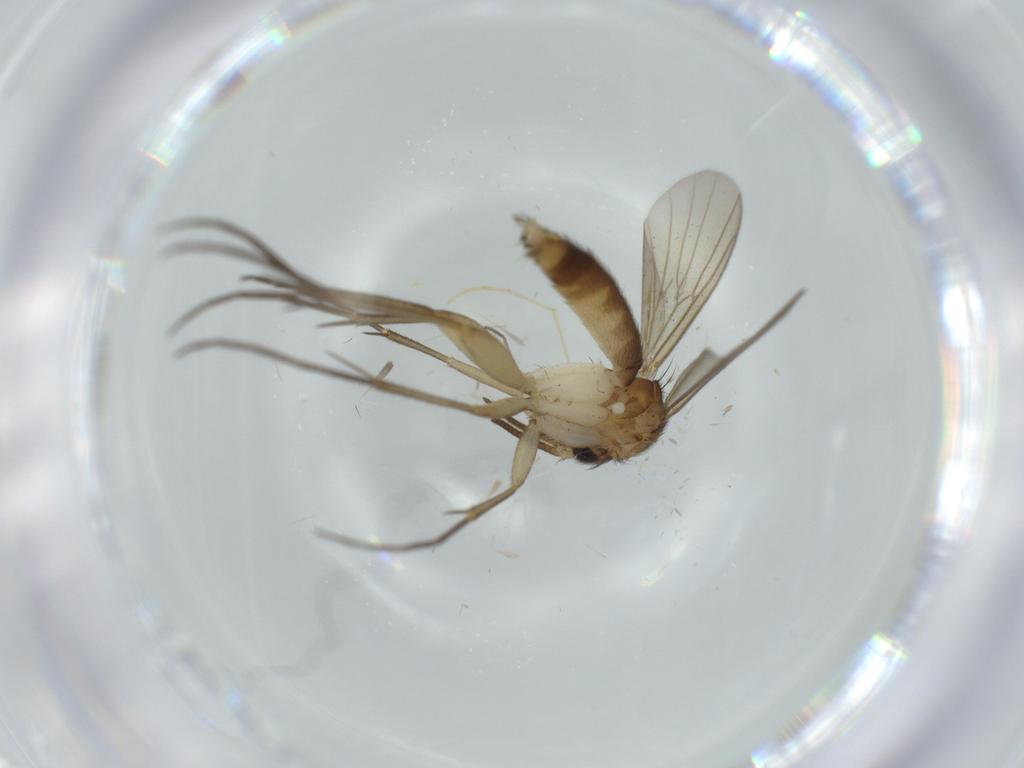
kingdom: Animalia
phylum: Arthropoda
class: Insecta
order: Diptera
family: Chironomidae
